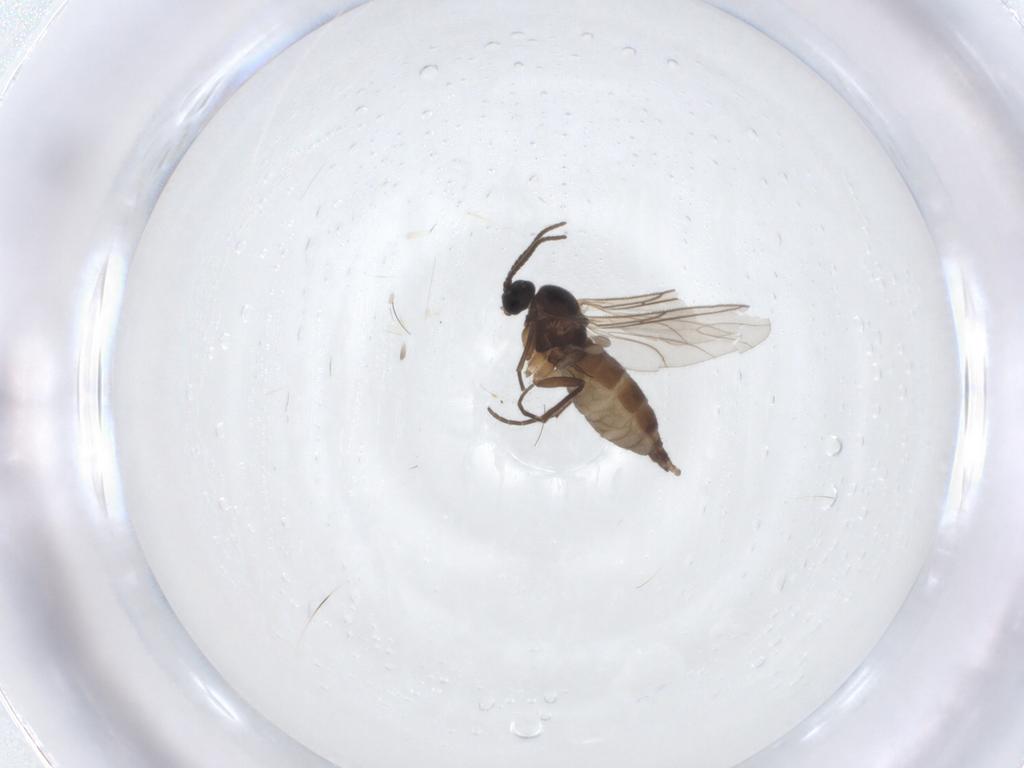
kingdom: Animalia
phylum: Arthropoda
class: Insecta
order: Diptera
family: Sciaridae
